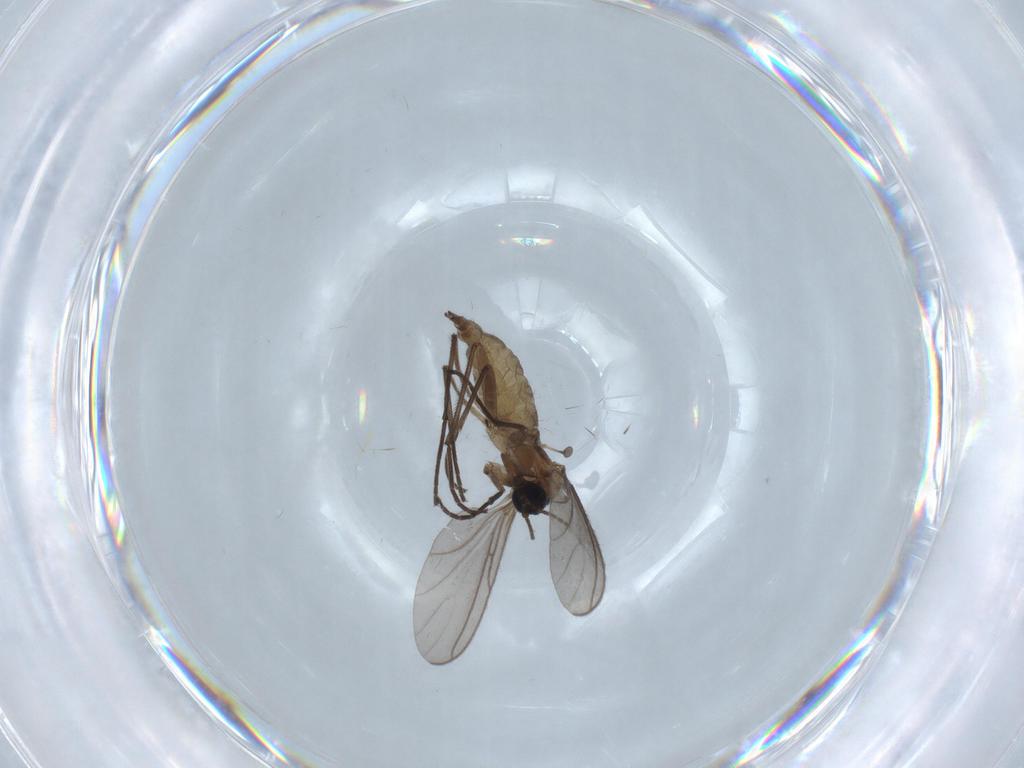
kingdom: Animalia
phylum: Arthropoda
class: Insecta
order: Diptera
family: Sciaridae
